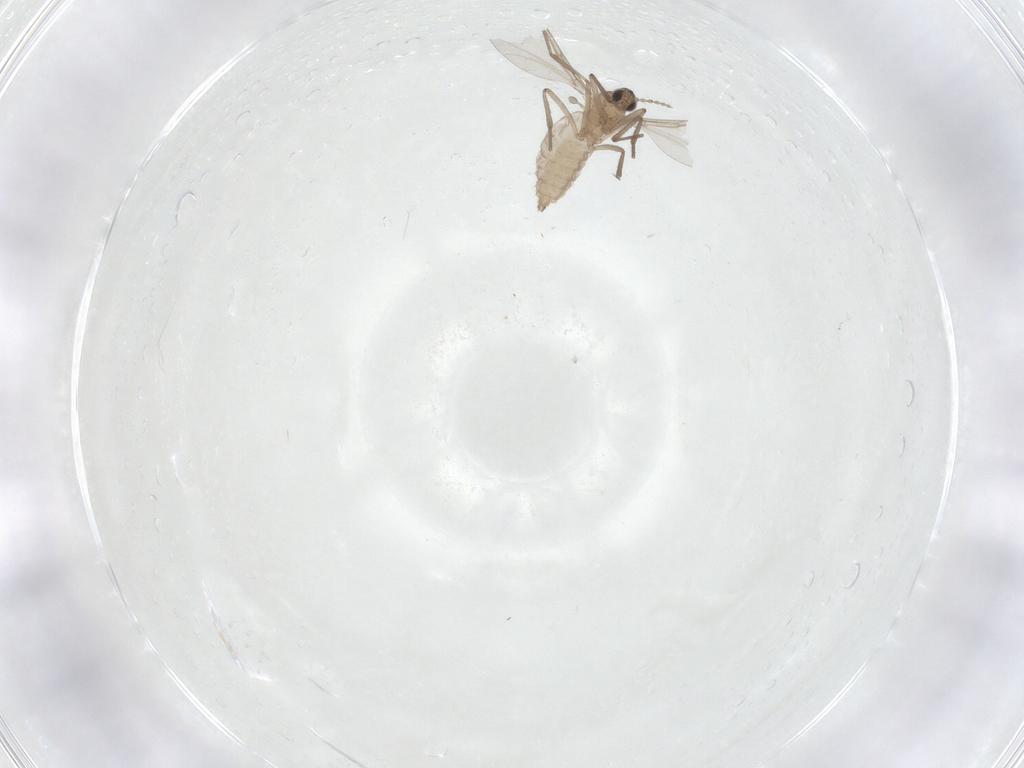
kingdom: Animalia
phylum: Arthropoda
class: Insecta
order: Diptera
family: Cecidomyiidae
